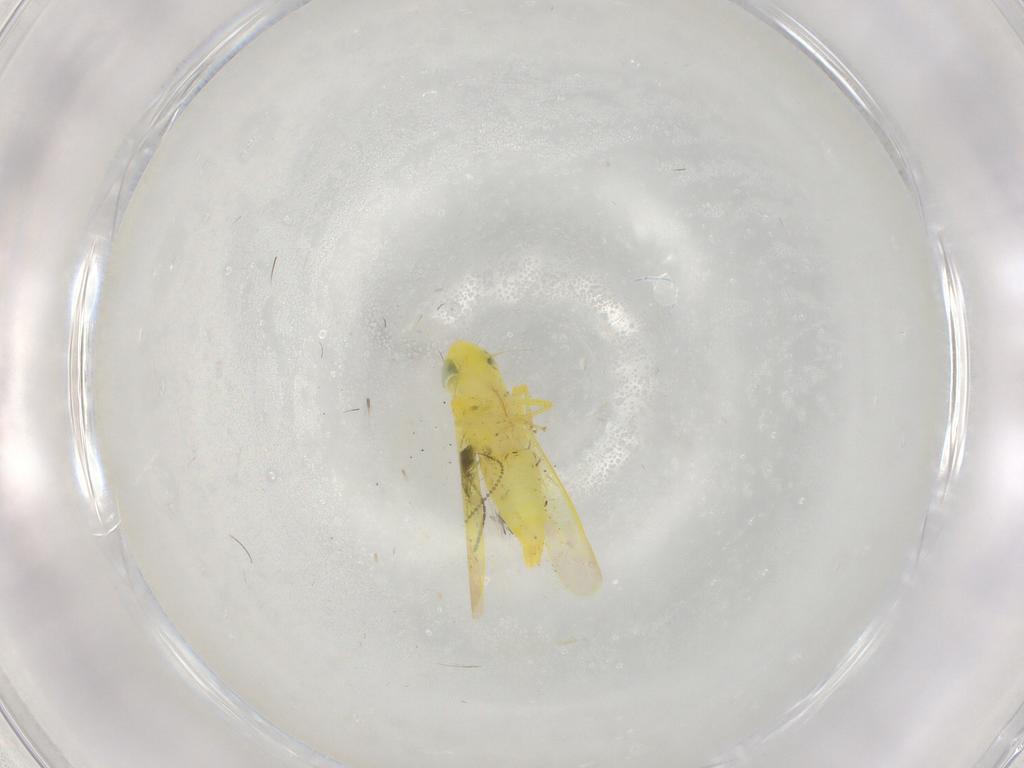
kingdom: Animalia
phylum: Arthropoda
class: Insecta
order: Hemiptera
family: Cicadellidae
